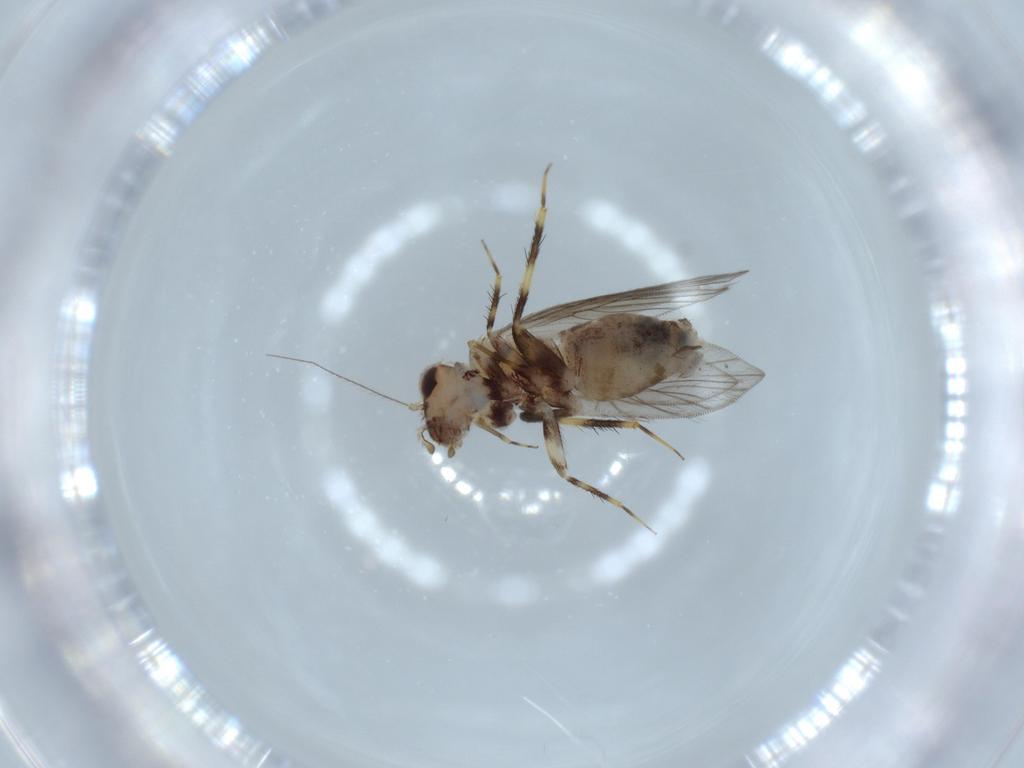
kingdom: Animalia
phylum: Arthropoda
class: Insecta
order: Psocodea
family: Lepidopsocidae
